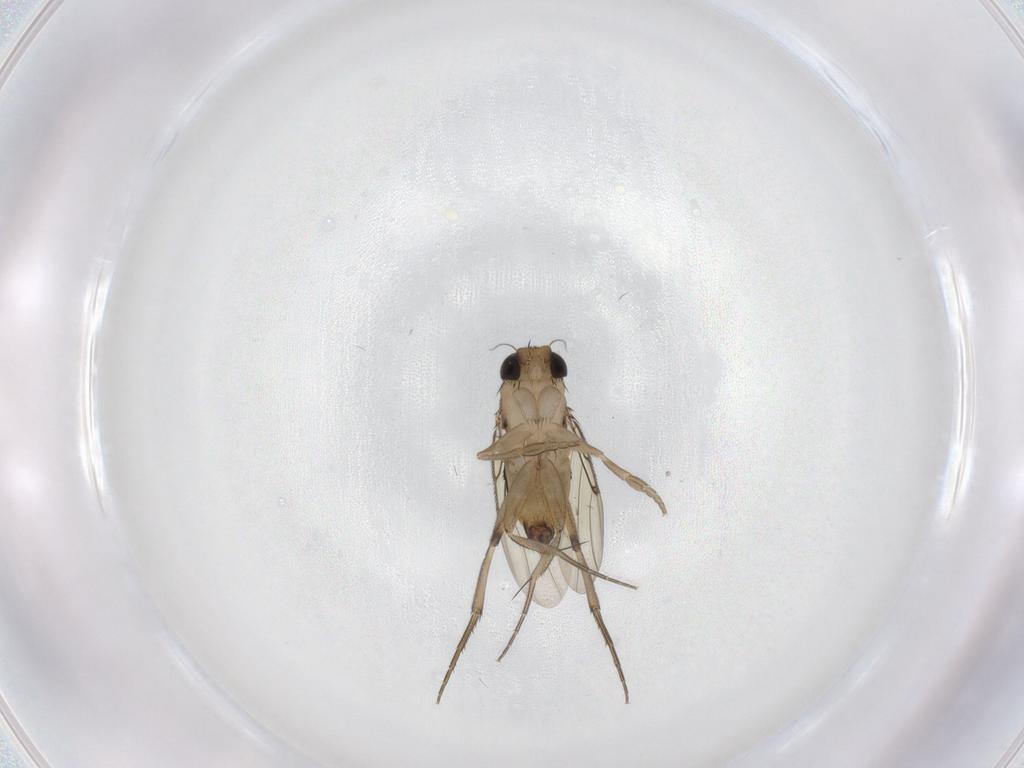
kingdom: Animalia
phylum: Arthropoda
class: Insecta
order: Diptera
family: Phoridae
